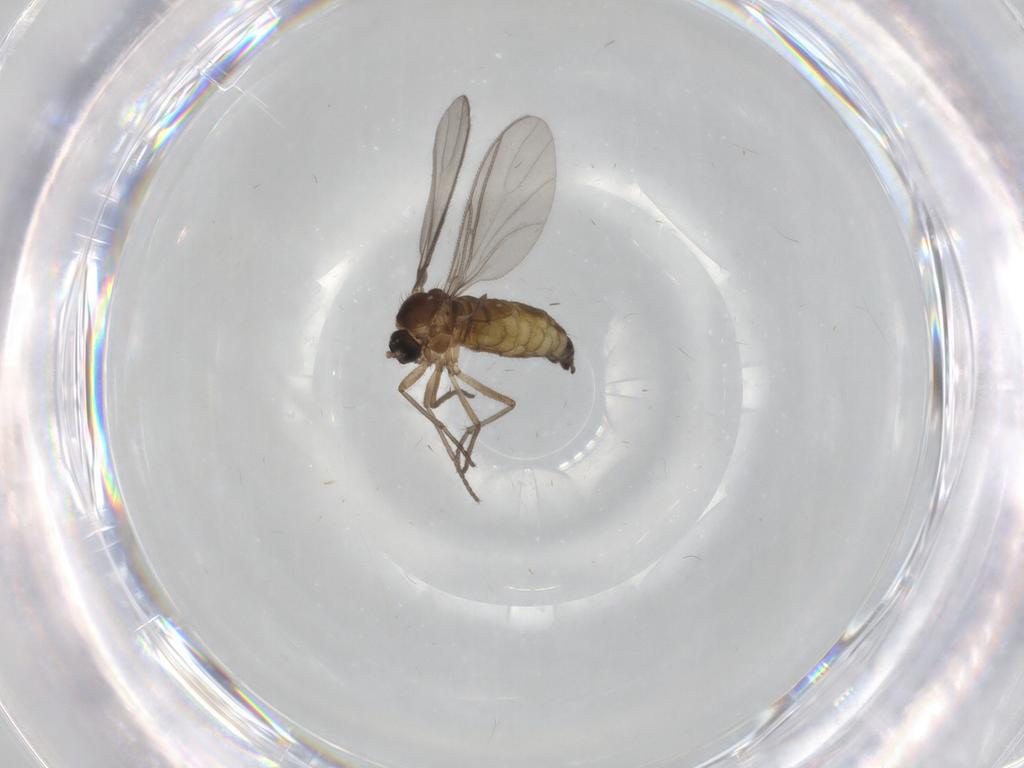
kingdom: Animalia
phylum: Arthropoda
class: Insecta
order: Diptera
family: Sciaridae
